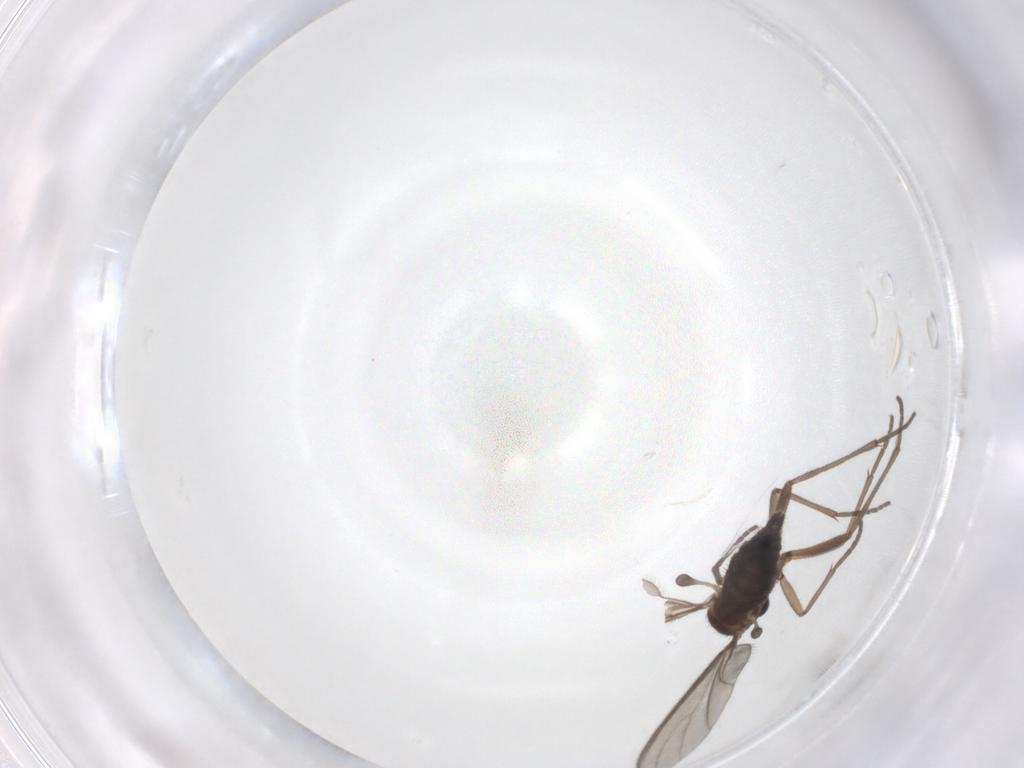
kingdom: Animalia
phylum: Arthropoda
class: Insecta
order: Diptera
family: Sciaridae
